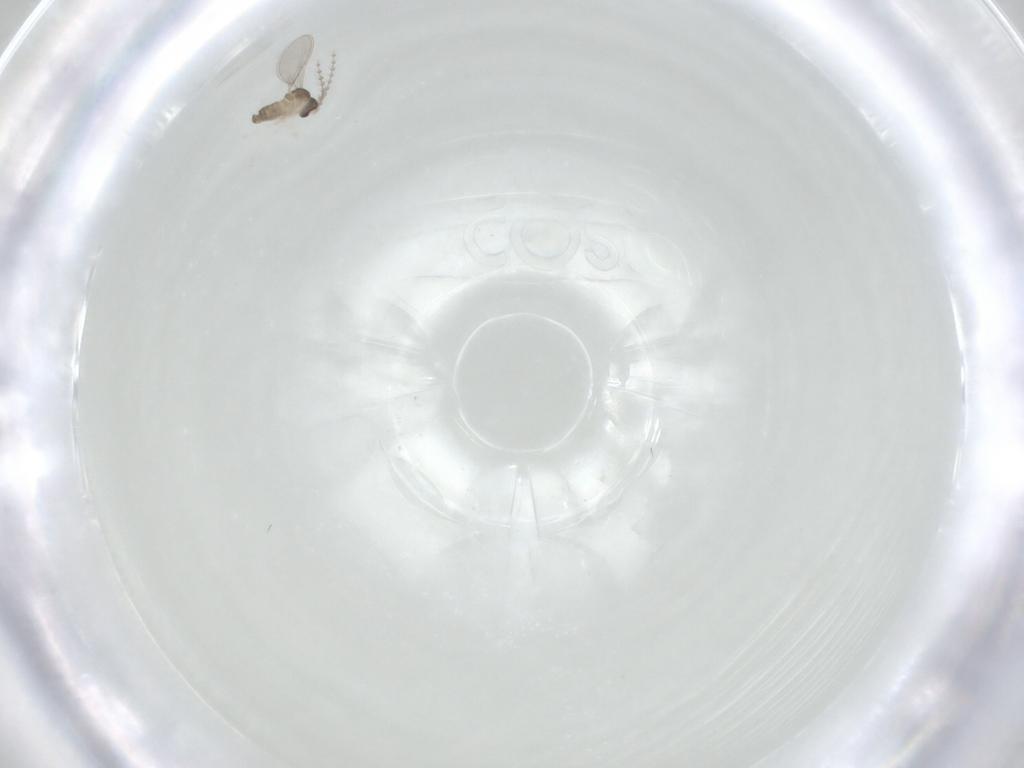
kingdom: Animalia
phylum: Arthropoda
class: Insecta
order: Diptera
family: Cecidomyiidae
